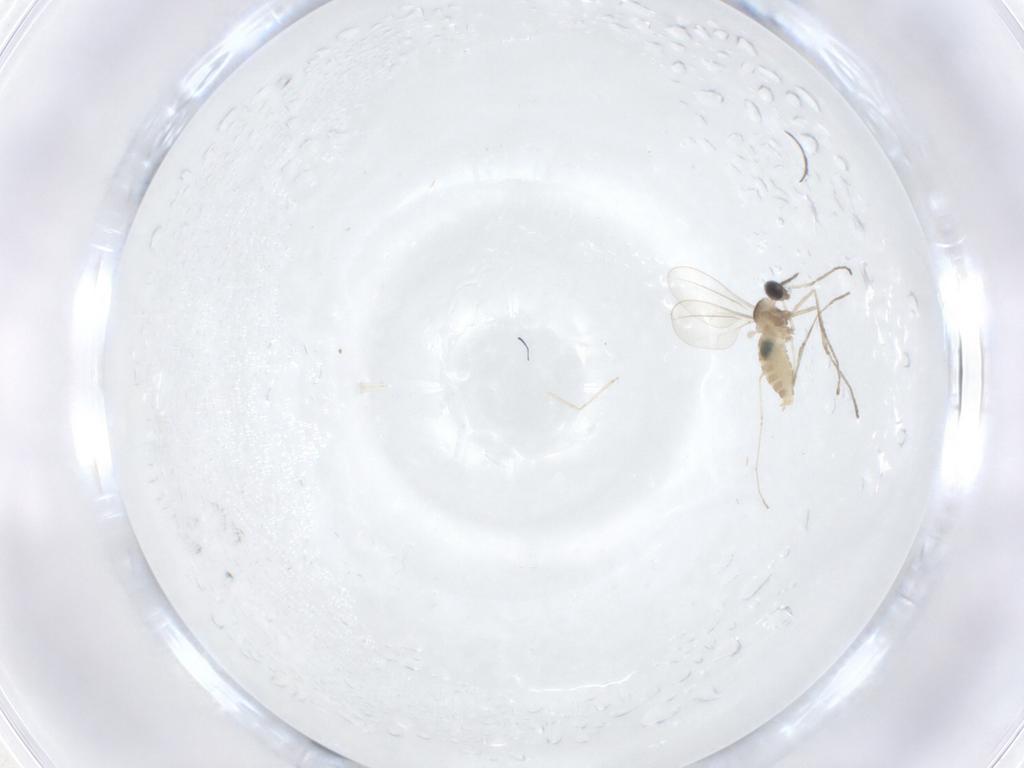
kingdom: Animalia
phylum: Arthropoda
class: Insecta
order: Diptera
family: Cecidomyiidae
